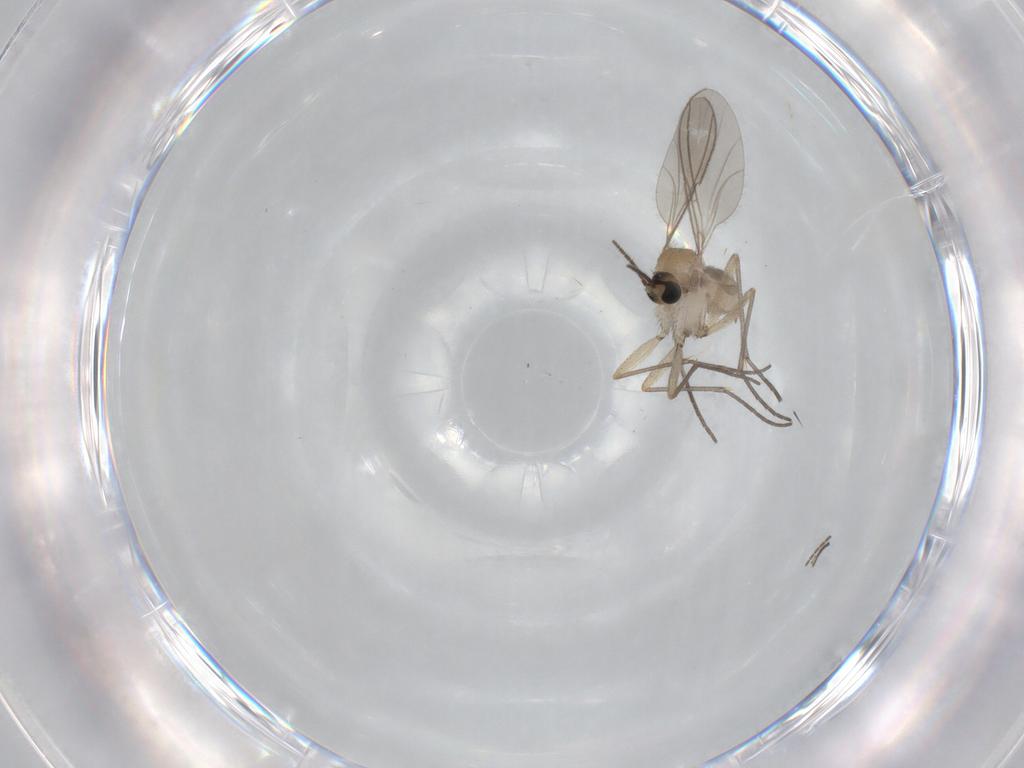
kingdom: Animalia
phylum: Arthropoda
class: Insecta
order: Diptera
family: Sciaridae
